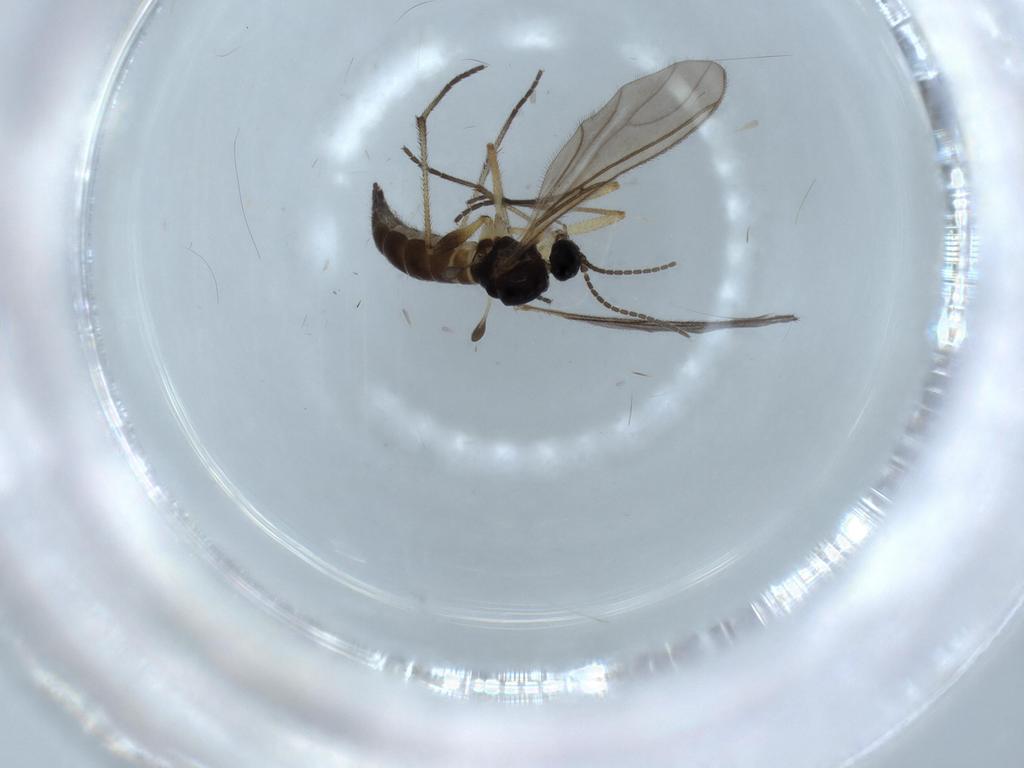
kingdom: Animalia
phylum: Arthropoda
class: Insecta
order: Diptera
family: Sciaridae
